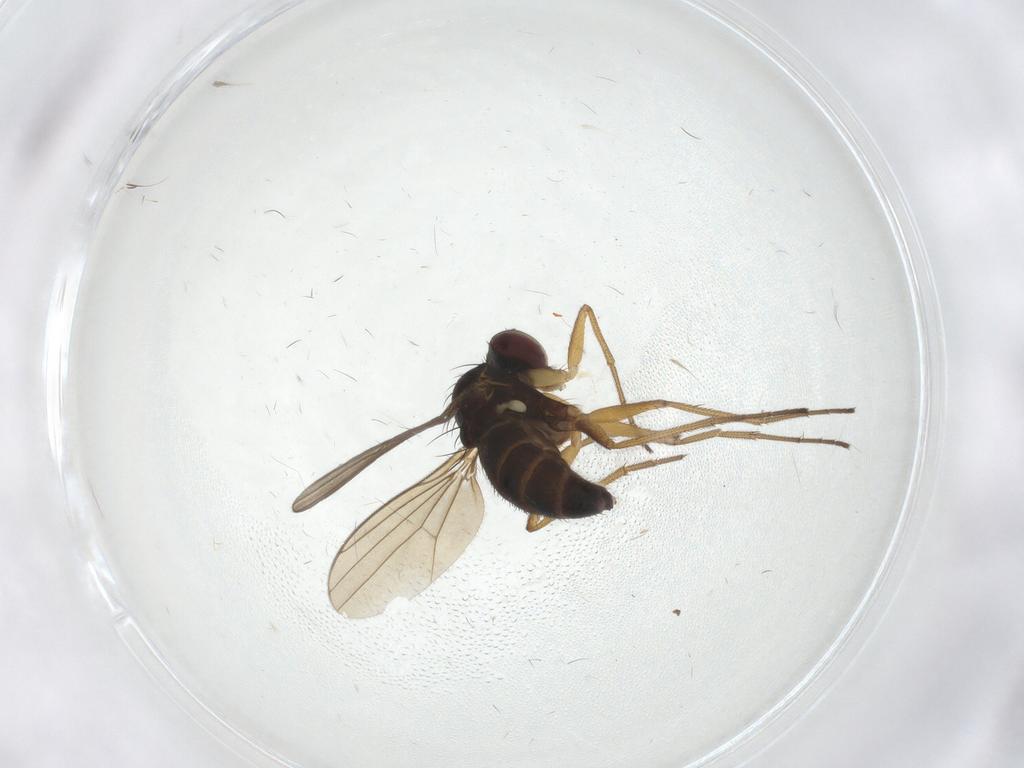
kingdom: Animalia
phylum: Arthropoda
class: Insecta
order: Diptera
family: Dolichopodidae
